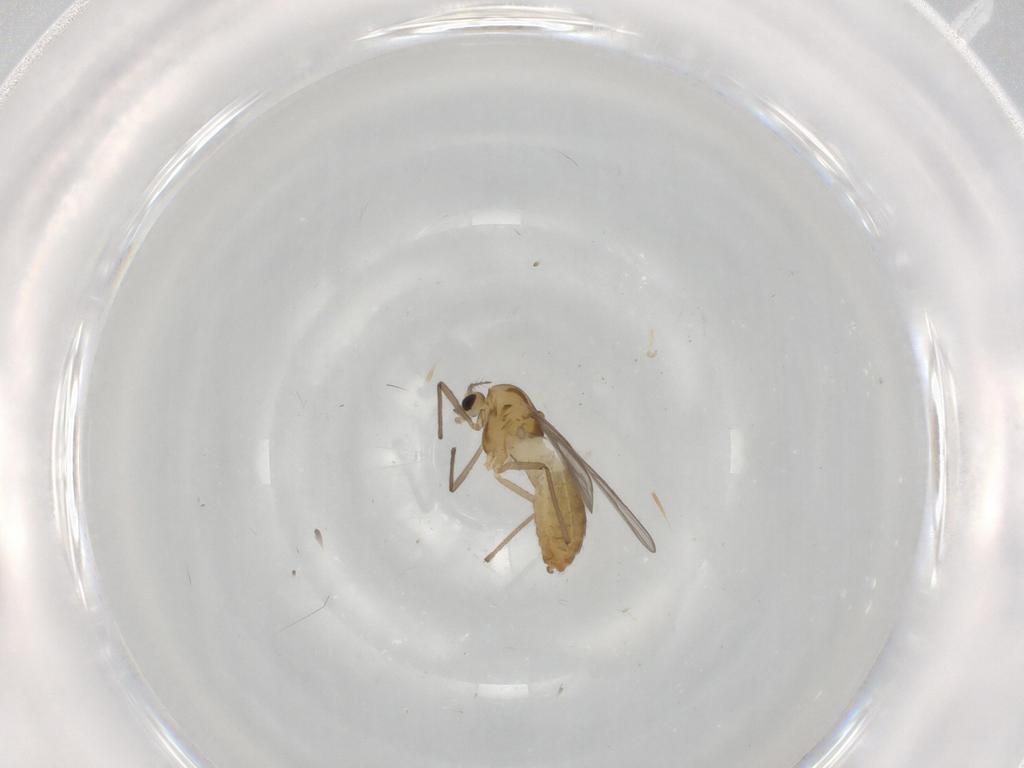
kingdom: Animalia
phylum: Arthropoda
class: Insecta
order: Diptera
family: Chironomidae
